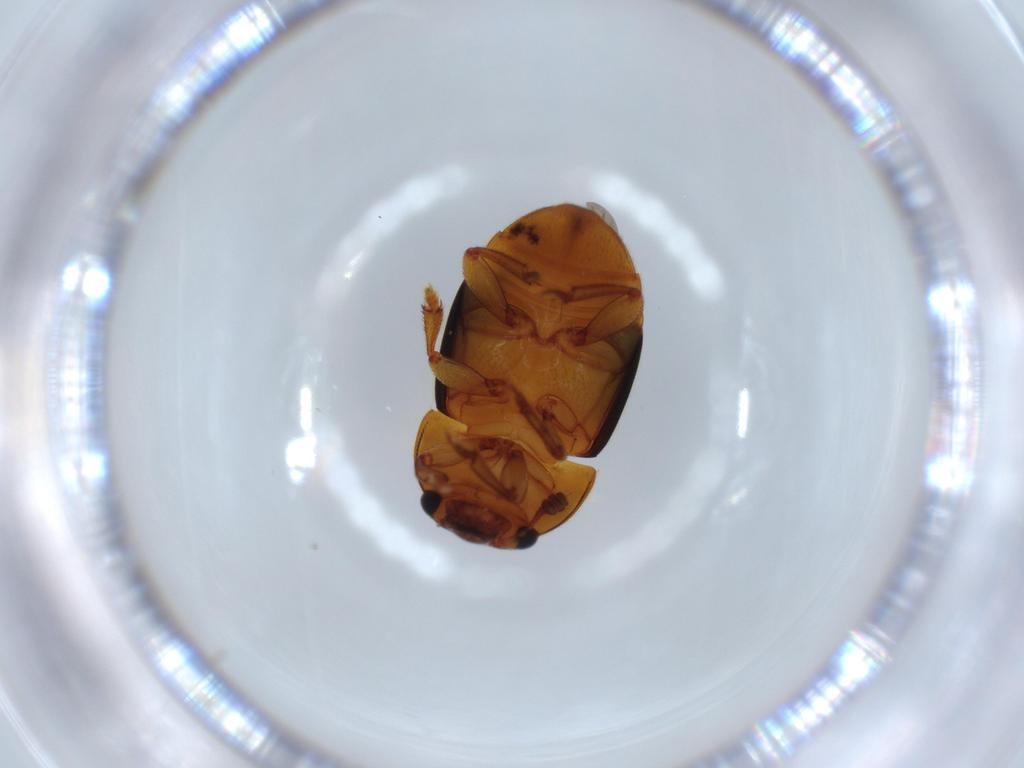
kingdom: Animalia
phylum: Arthropoda
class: Insecta
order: Coleoptera
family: Nitidulidae
